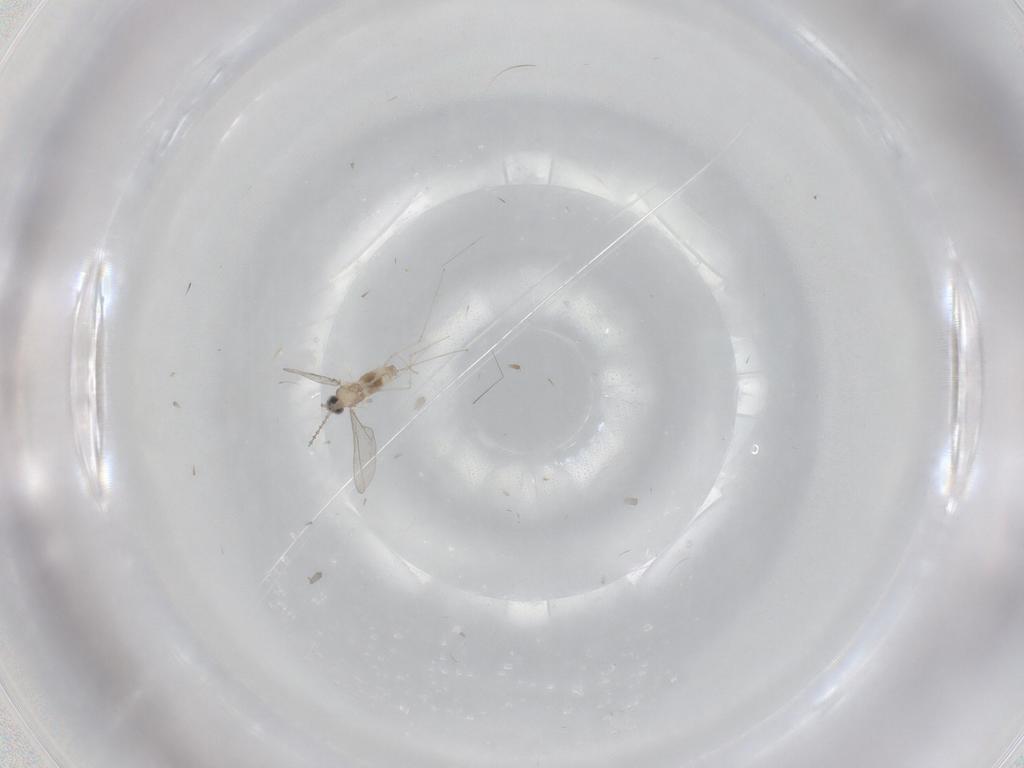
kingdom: Animalia
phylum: Arthropoda
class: Insecta
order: Diptera
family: Cecidomyiidae
